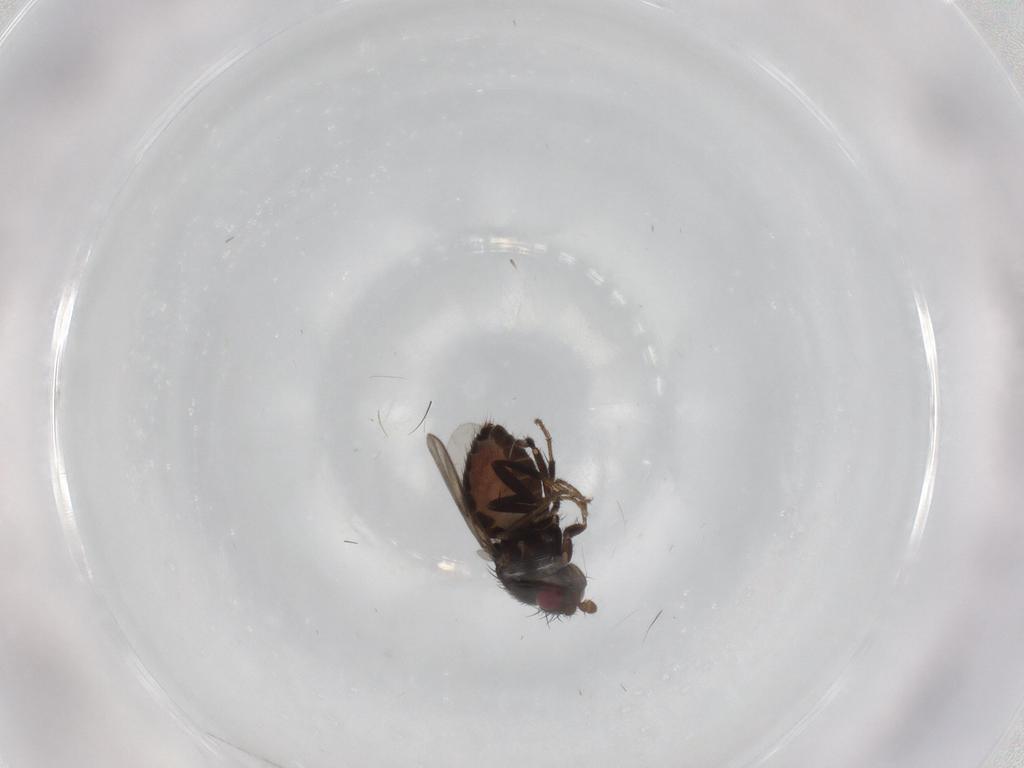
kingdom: Animalia
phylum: Arthropoda
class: Insecta
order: Diptera
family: Sphaeroceridae
